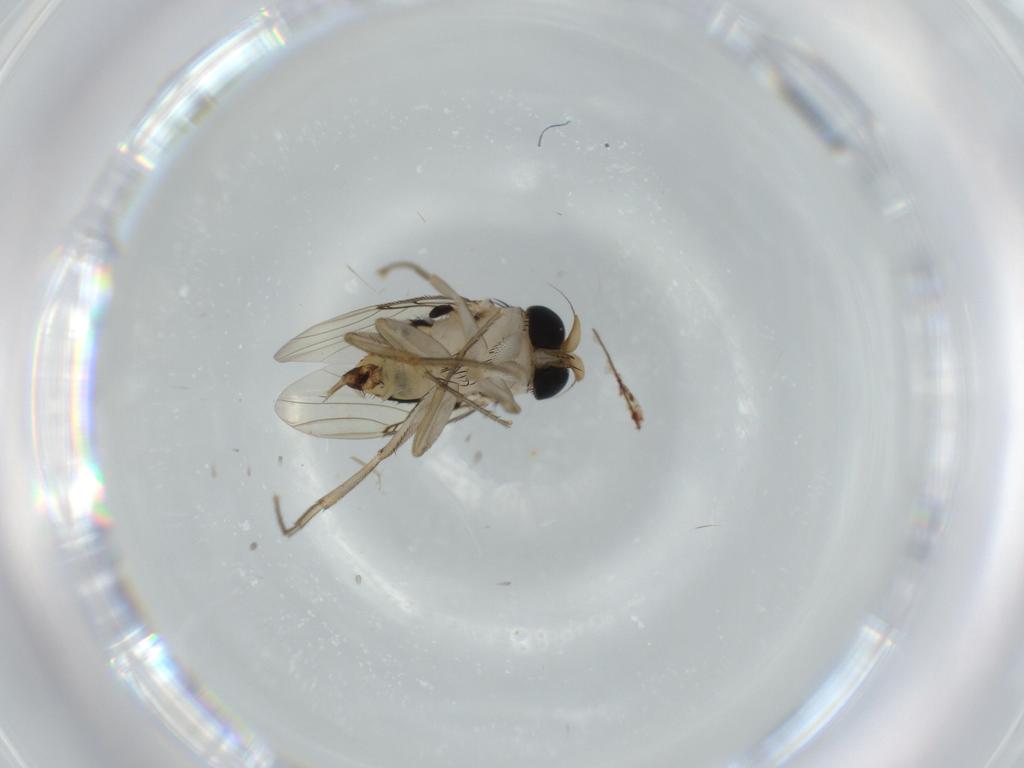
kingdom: Animalia
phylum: Arthropoda
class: Insecta
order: Diptera
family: Phoridae
